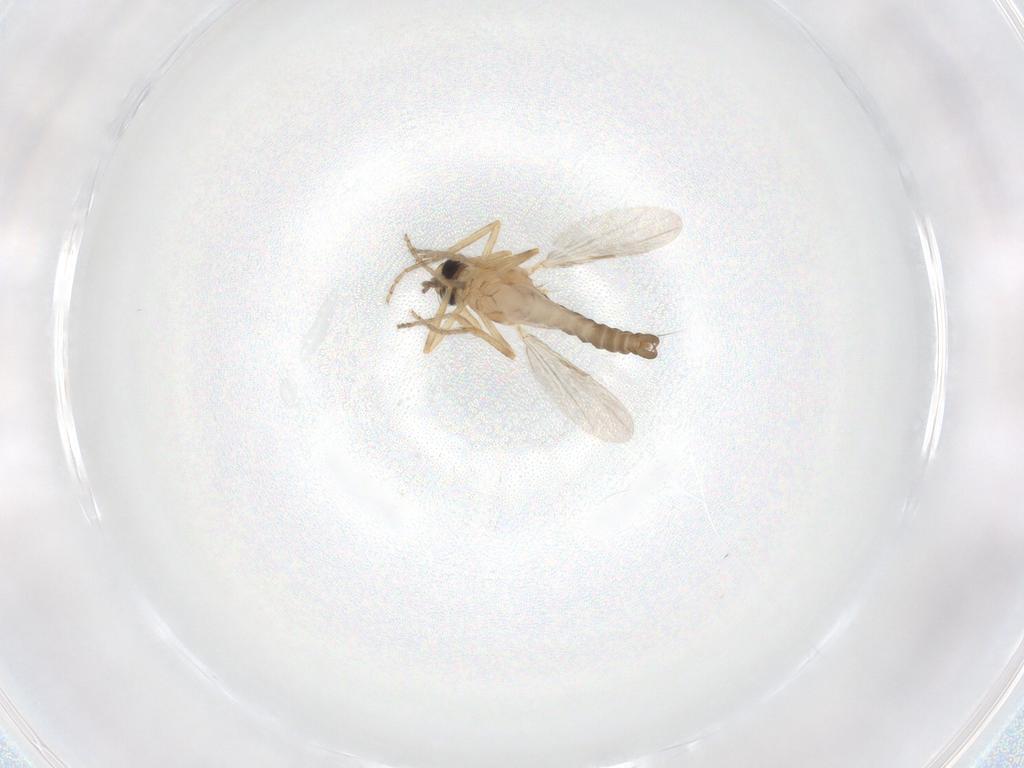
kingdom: Animalia
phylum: Arthropoda
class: Insecta
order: Diptera
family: Ceratopogonidae
